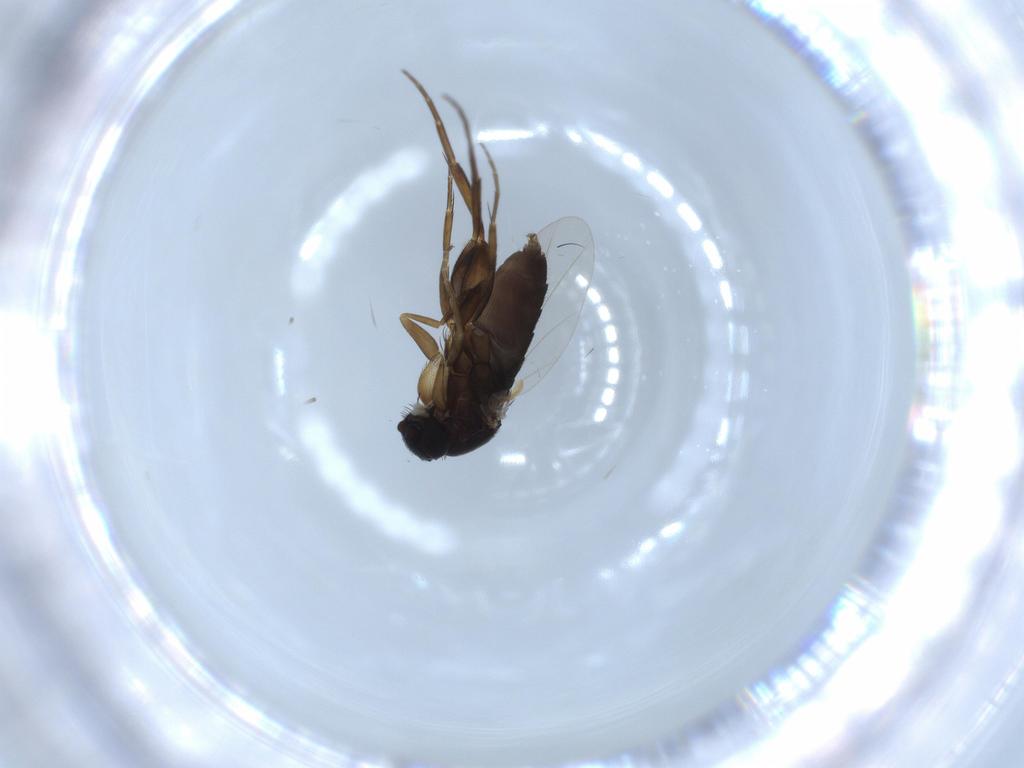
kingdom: Animalia
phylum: Arthropoda
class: Insecta
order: Diptera
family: Phoridae
